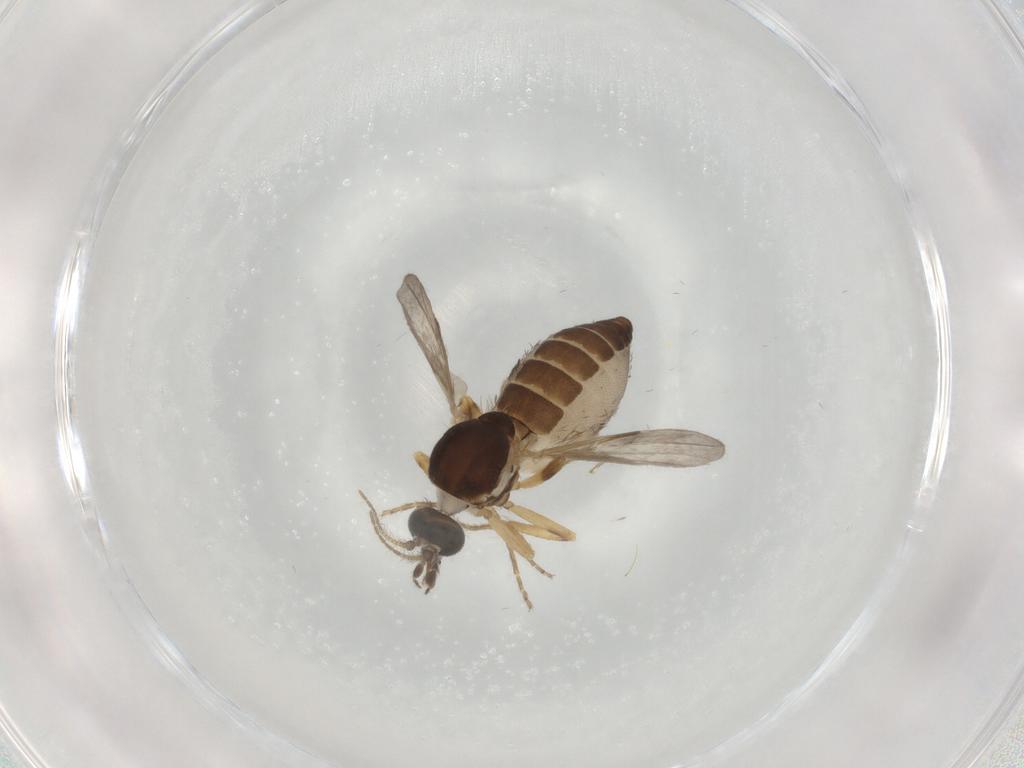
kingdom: Animalia
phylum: Arthropoda
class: Insecta
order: Diptera
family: Ceratopogonidae
